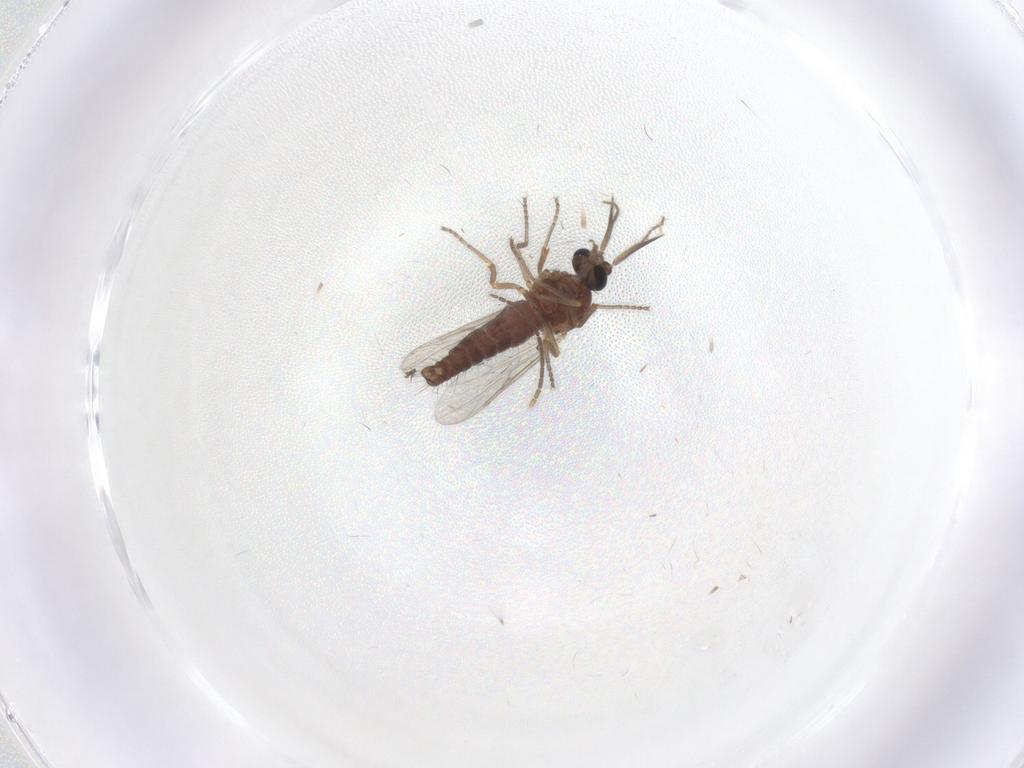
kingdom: Animalia
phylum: Arthropoda
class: Insecta
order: Diptera
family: Ceratopogonidae
